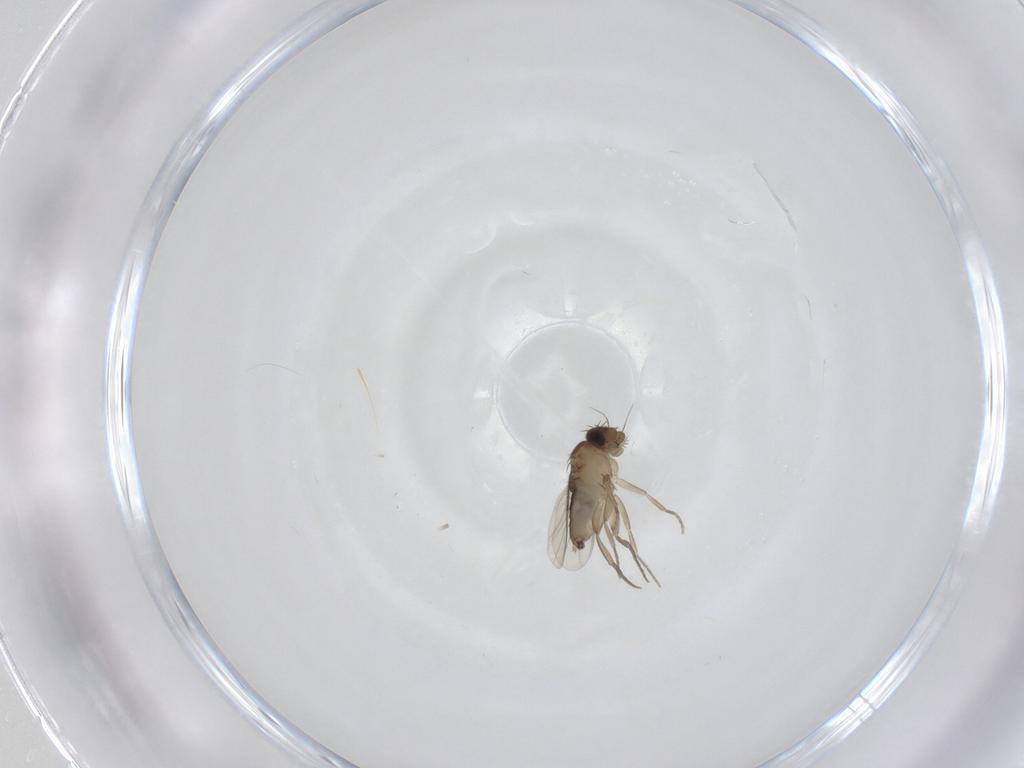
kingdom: Animalia
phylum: Arthropoda
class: Insecta
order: Diptera
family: Phoridae
